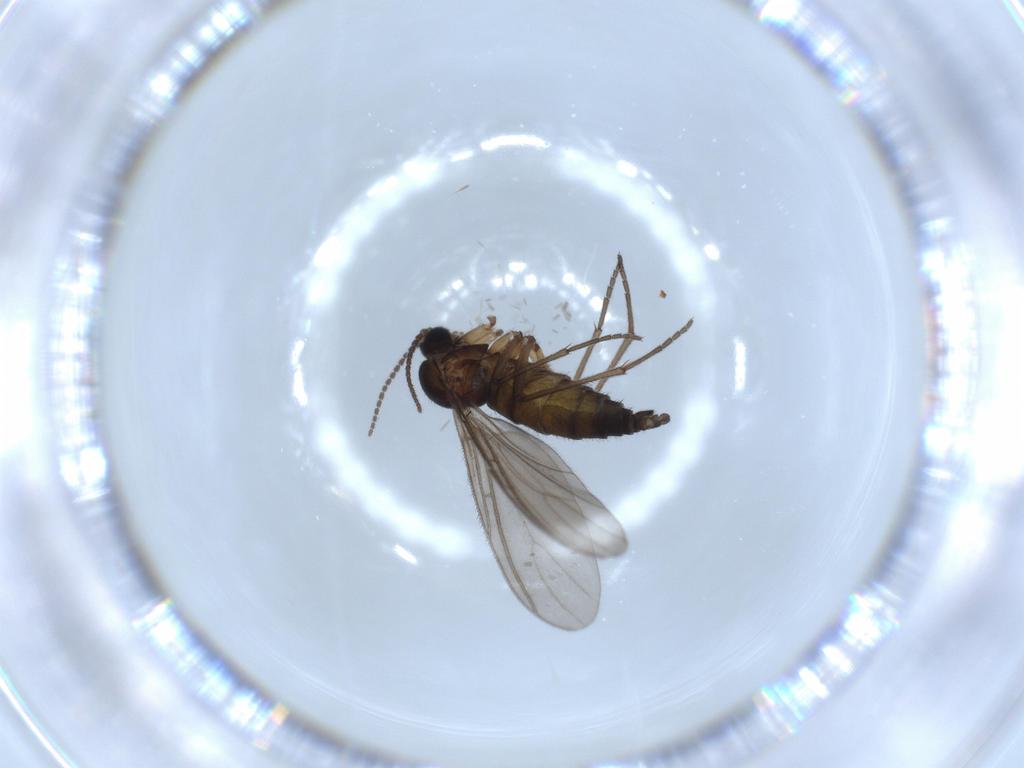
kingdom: Animalia
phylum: Arthropoda
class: Insecta
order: Diptera
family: Sciaridae
